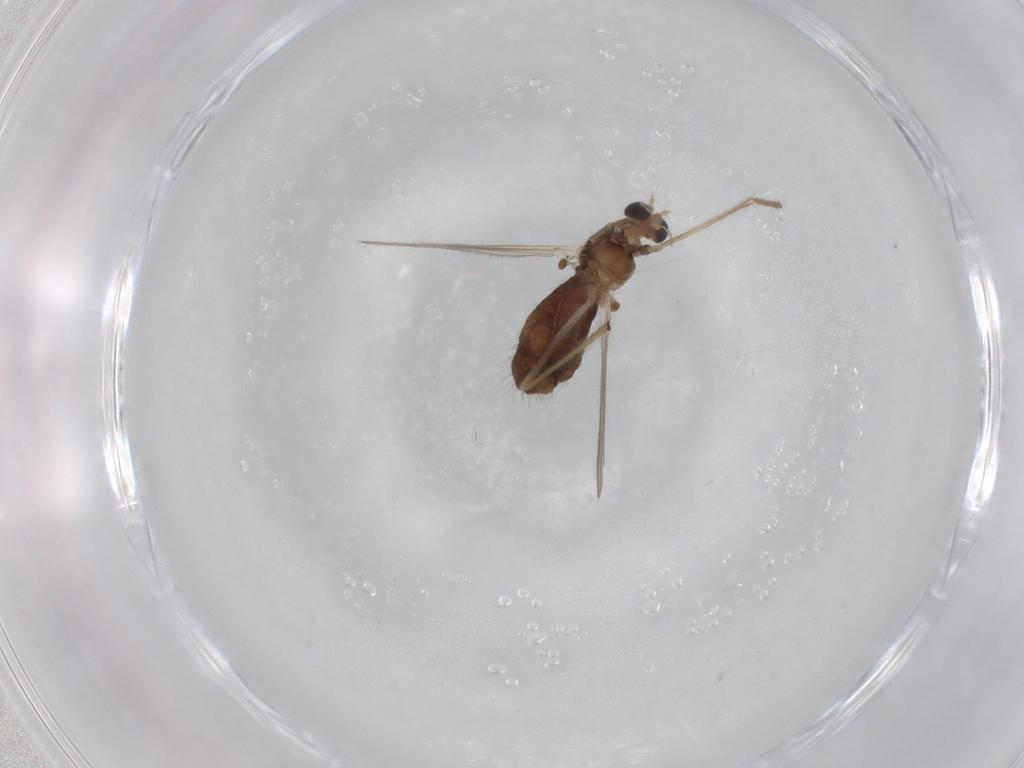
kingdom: Animalia
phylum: Arthropoda
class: Insecta
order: Diptera
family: Chironomidae
